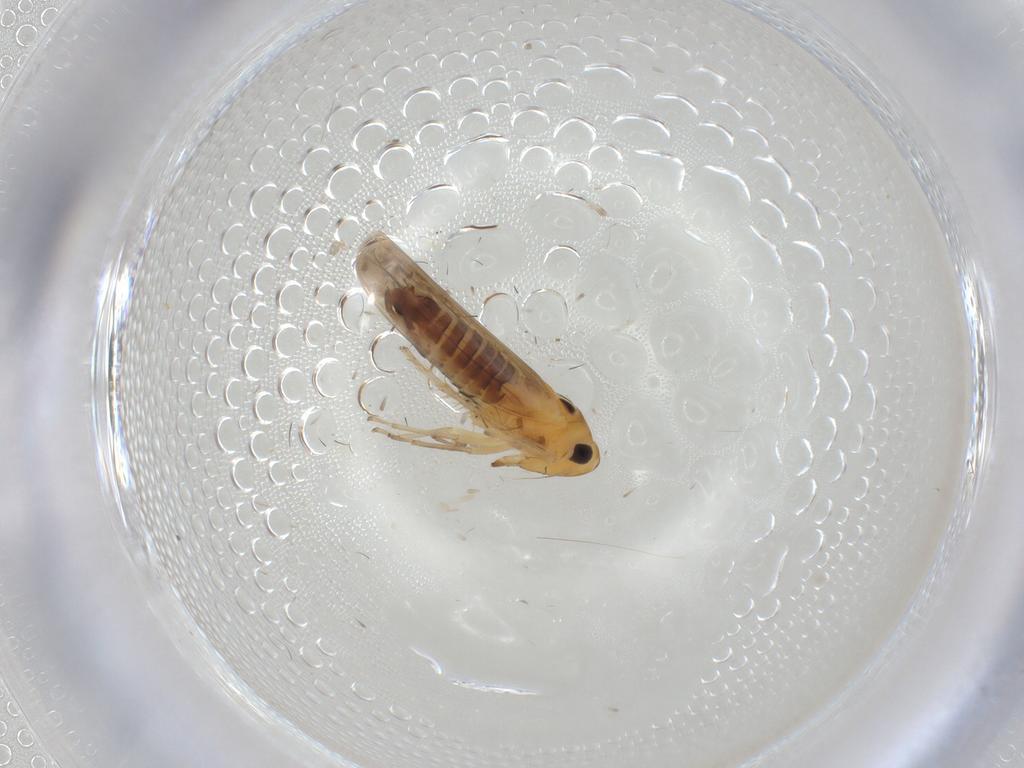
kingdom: Animalia
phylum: Arthropoda
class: Insecta
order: Hemiptera
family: Cicadellidae
